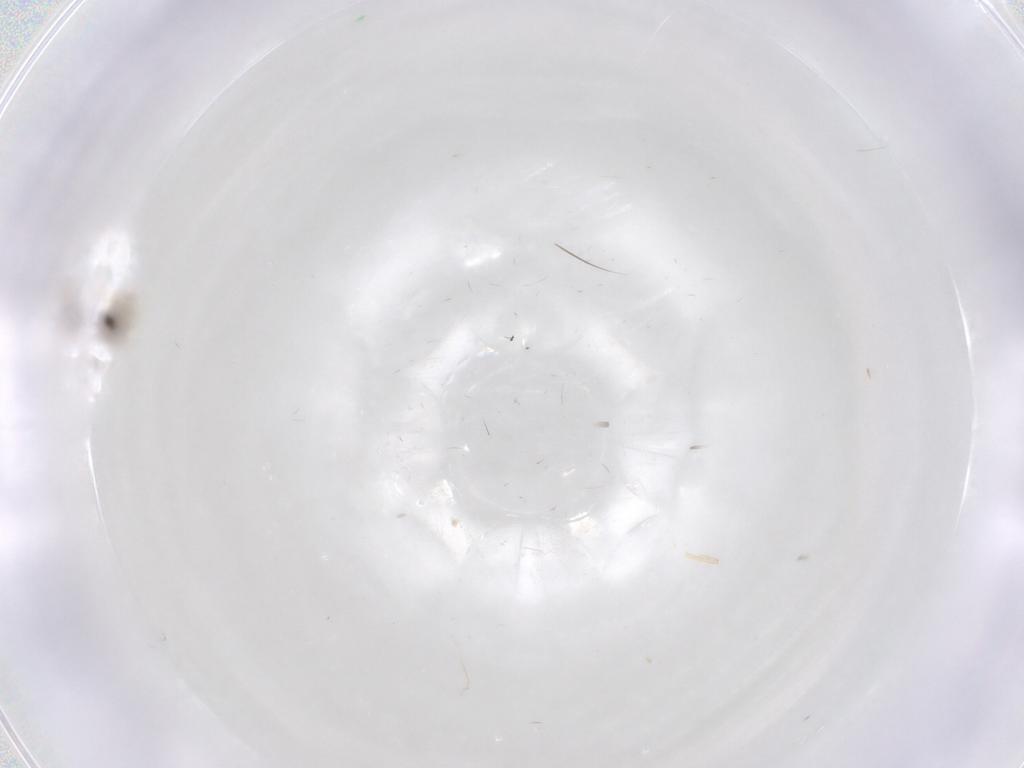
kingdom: Animalia
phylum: Arthropoda
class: Insecta
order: Diptera
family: Cecidomyiidae
